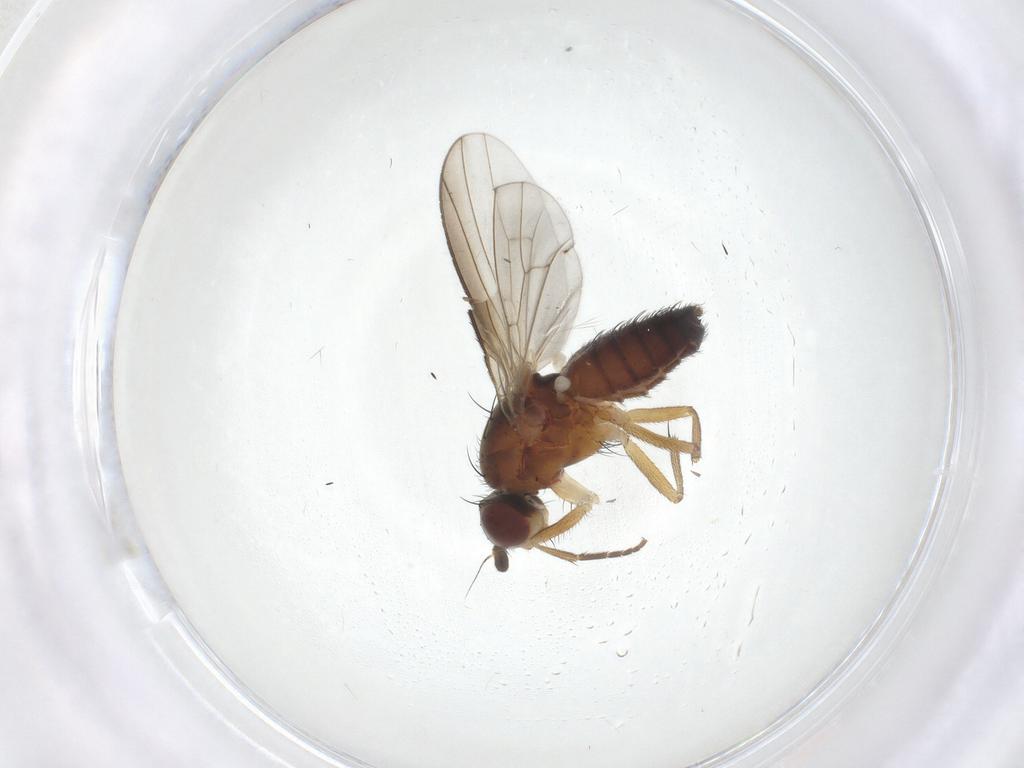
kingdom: Animalia
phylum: Arthropoda
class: Insecta
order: Diptera
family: Heleomyzidae
